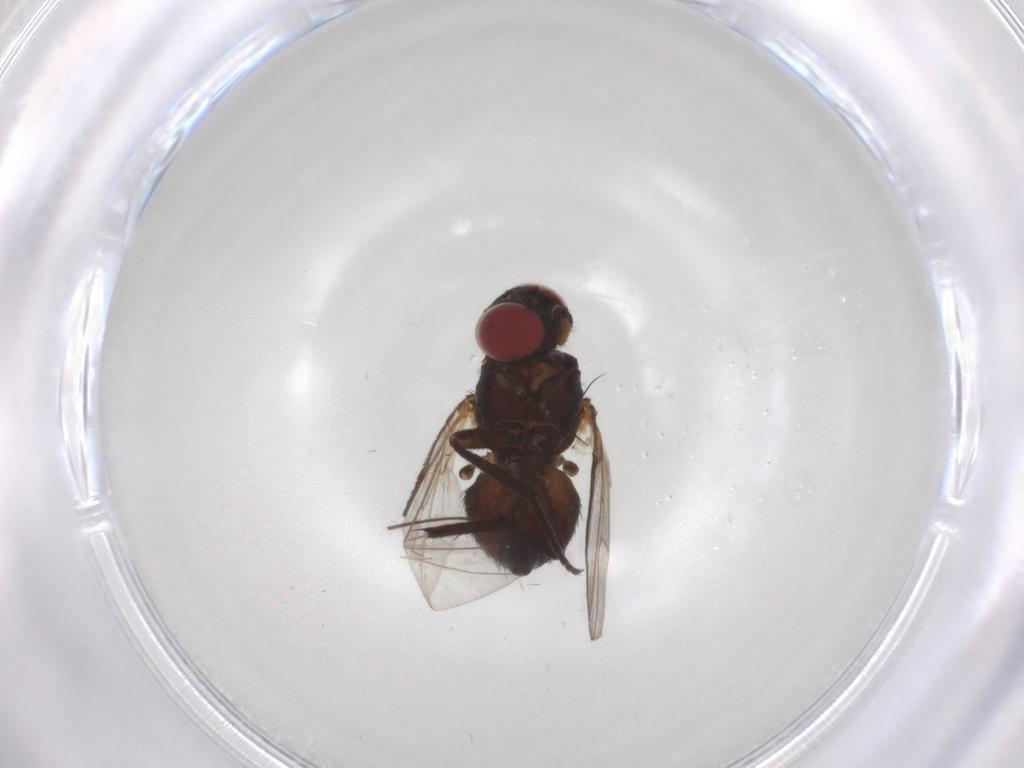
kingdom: Animalia
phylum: Arthropoda
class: Insecta
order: Diptera
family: Agromyzidae
